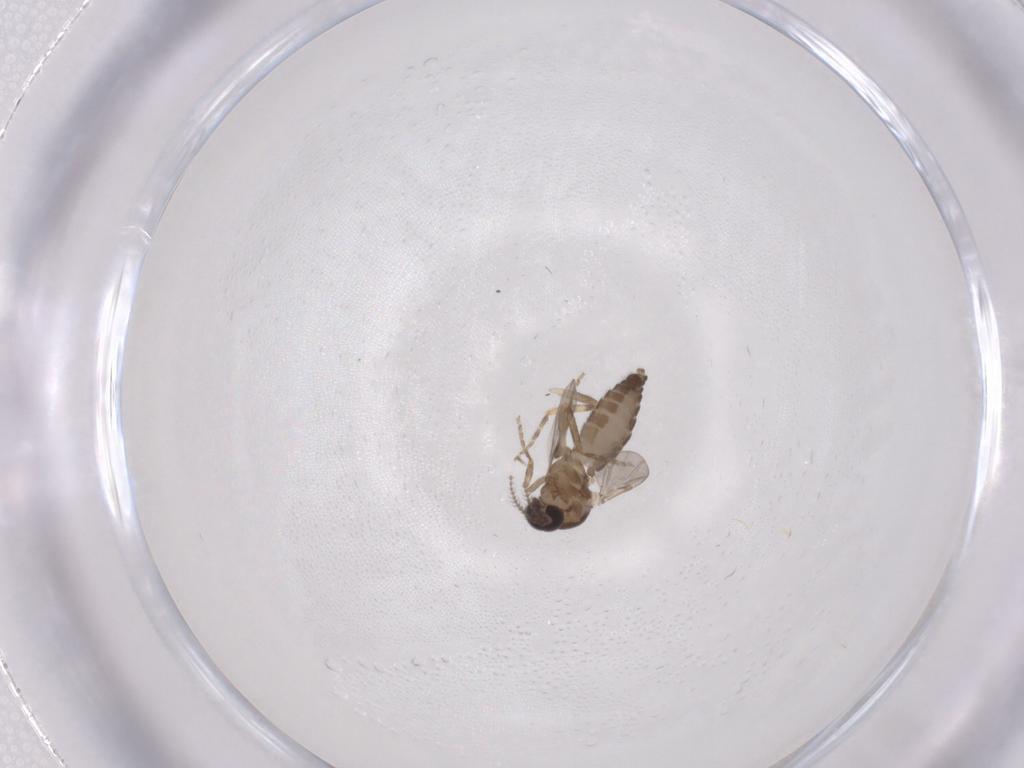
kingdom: Animalia
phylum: Arthropoda
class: Insecta
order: Diptera
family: Ceratopogonidae
